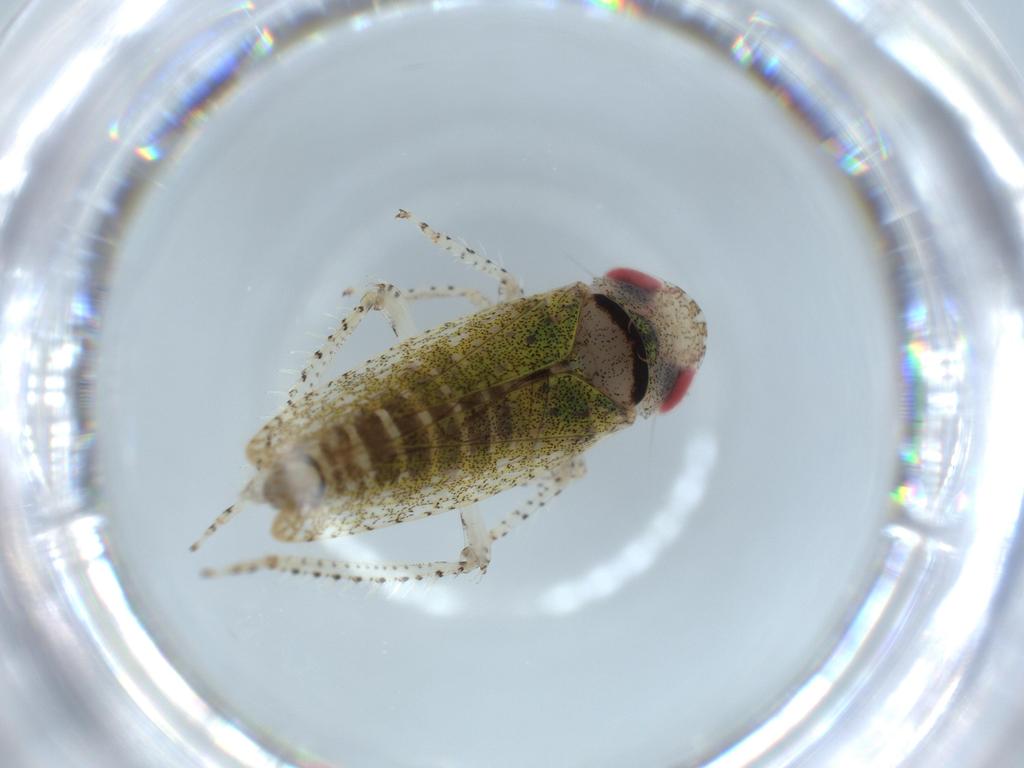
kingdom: Animalia
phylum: Arthropoda
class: Insecta
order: Hemiptera
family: Cicadellidae
